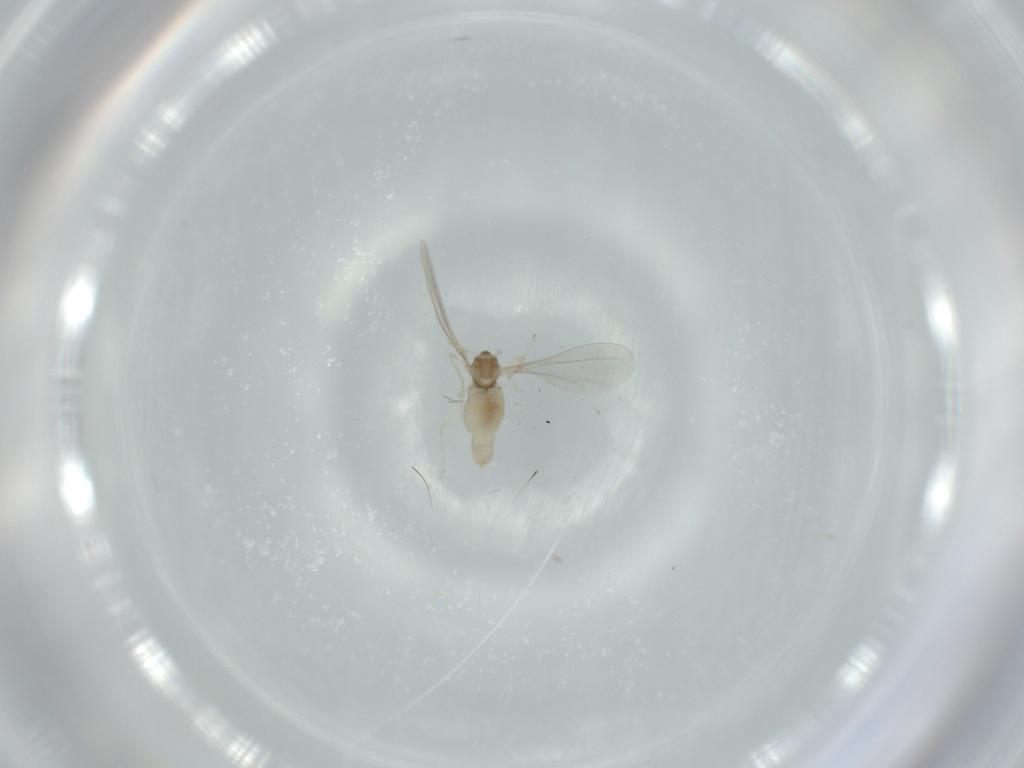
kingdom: Animalia
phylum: Arthropoda
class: Insecta
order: Diptera
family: Cecidomyiidae
